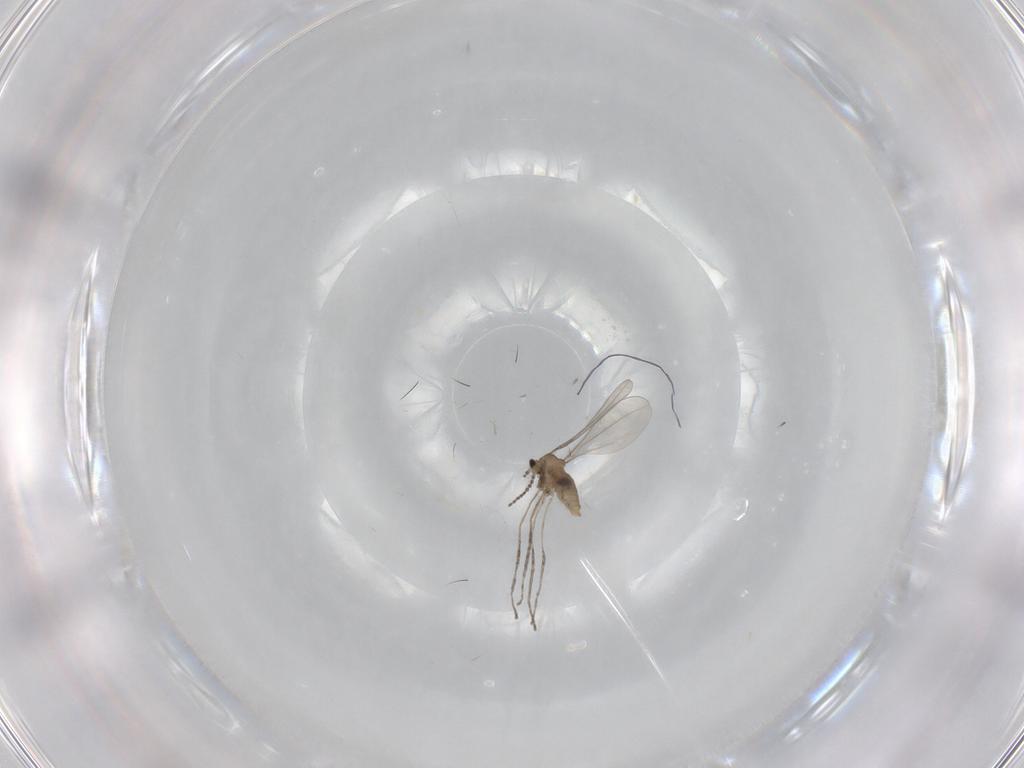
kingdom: Animalia
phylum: Arthropoda
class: Insecta
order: Diptera
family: Cecidomyiidae
